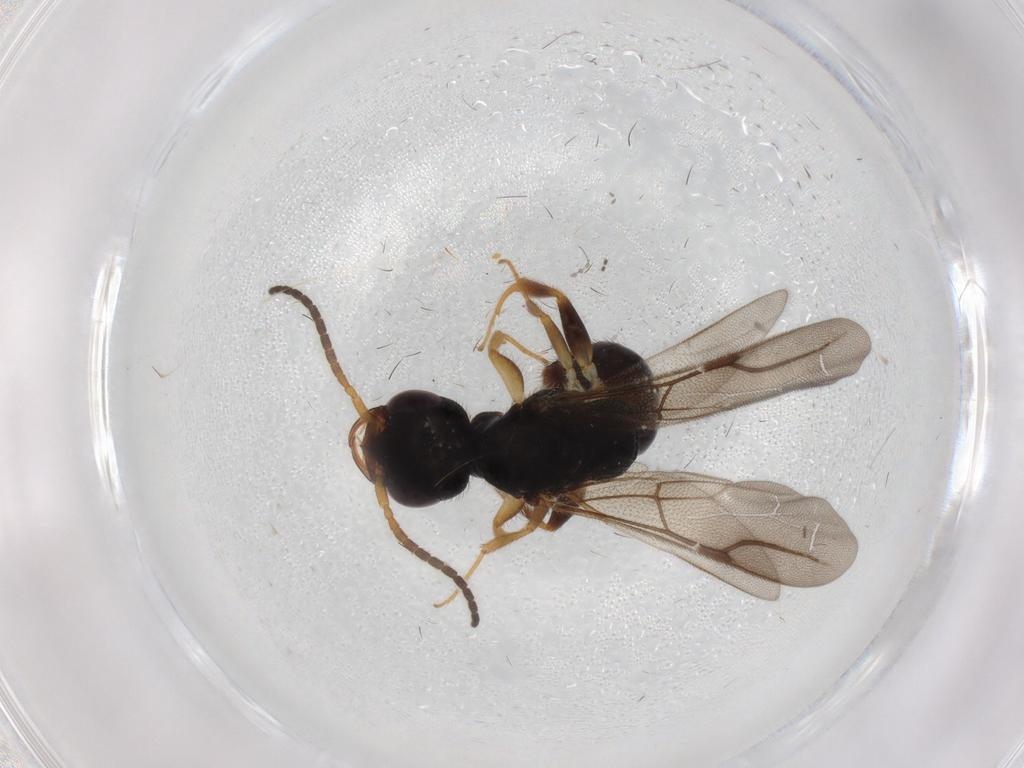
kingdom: Animalia
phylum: Arthropoda
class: Insecta
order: Hymenoptera
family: Bethylidae
